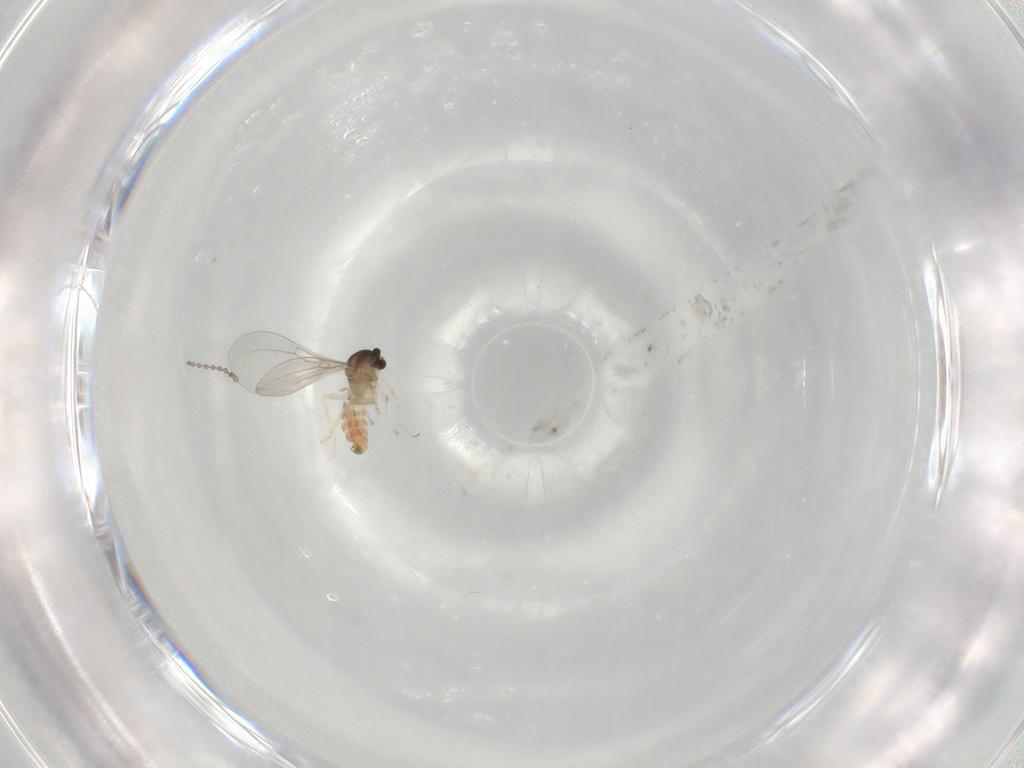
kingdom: Animalia
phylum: Arthropoda
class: Insecta
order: Diptera
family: Cecidomyiidae
